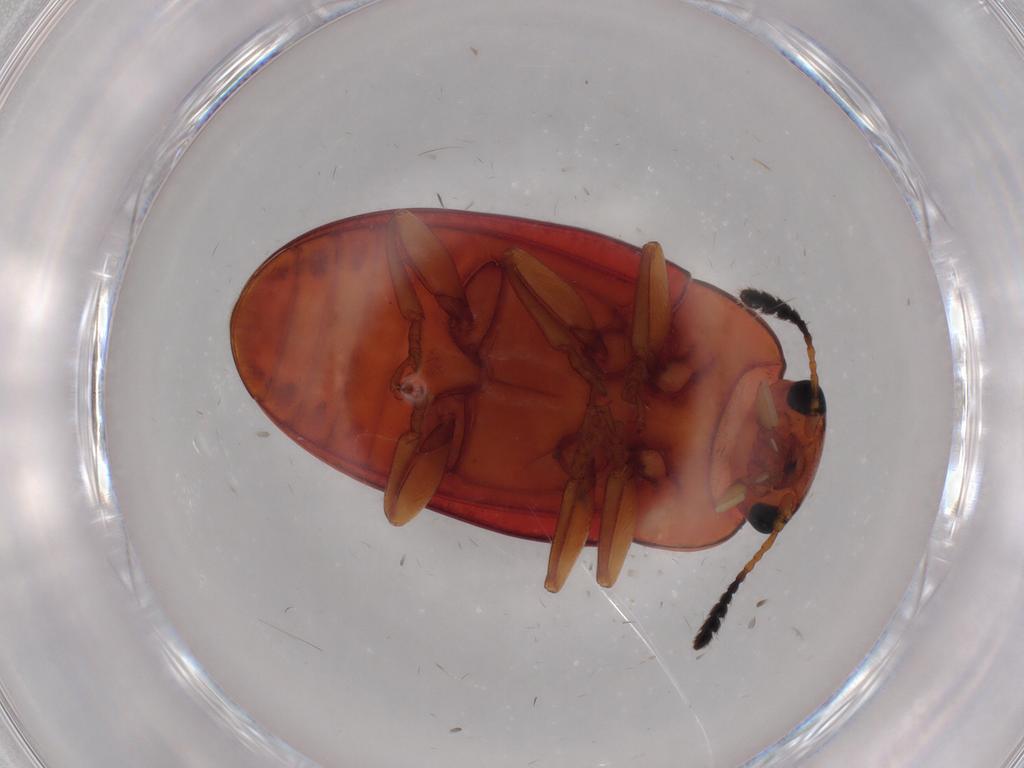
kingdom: Animalia
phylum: Arthropoda
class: Insecta
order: Coleoptera
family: Erotylidae
